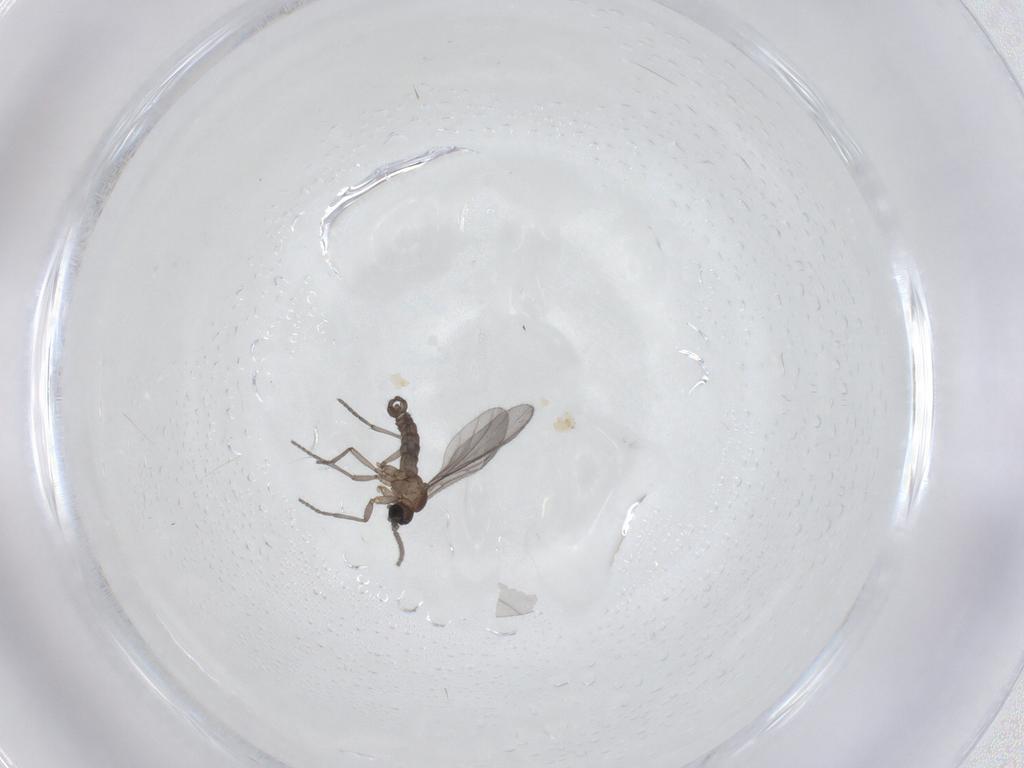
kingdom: Animalia
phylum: Arthropoda
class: Insecta
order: Diptera
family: Sciaridae
